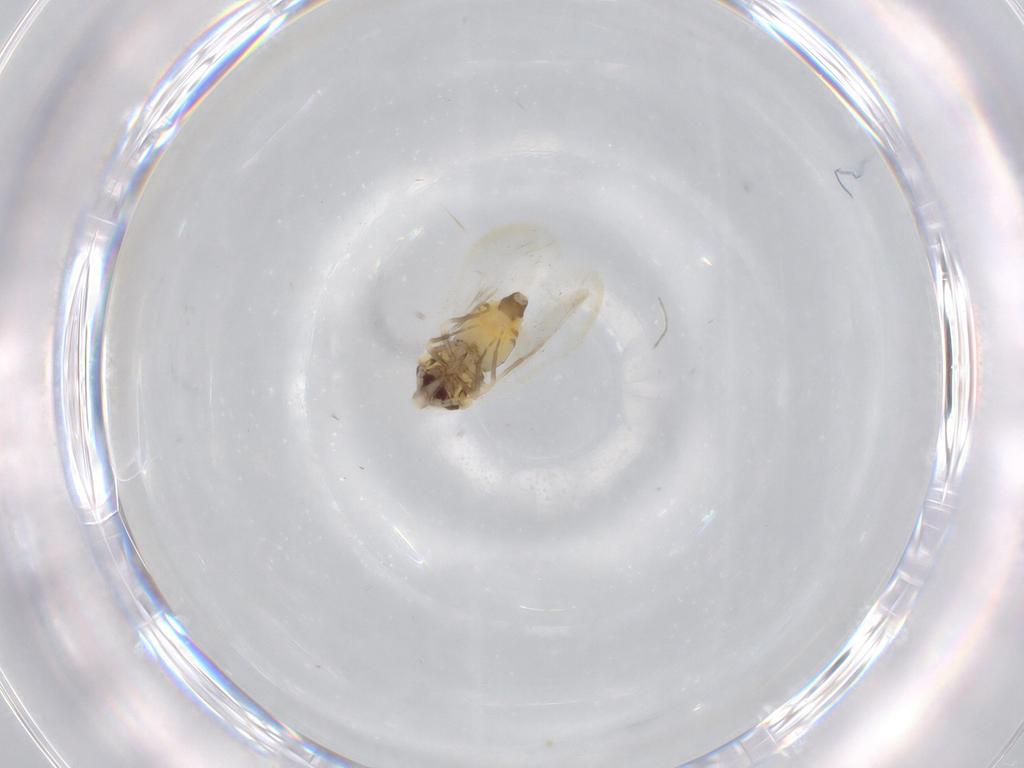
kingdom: Animalia
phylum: Arthropoda
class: Insecta
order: Hemiptera
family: Aleyrodidae
